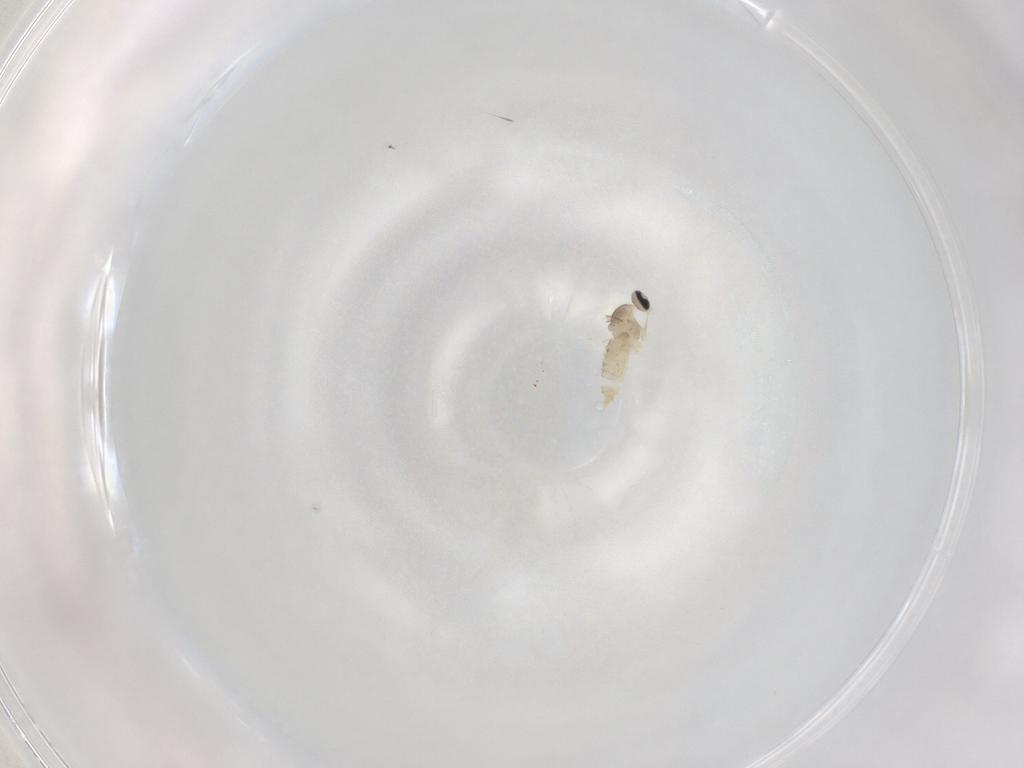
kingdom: Animalia
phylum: Arthropoda
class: Insecta
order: Diptera
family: Cecidomyiidae
